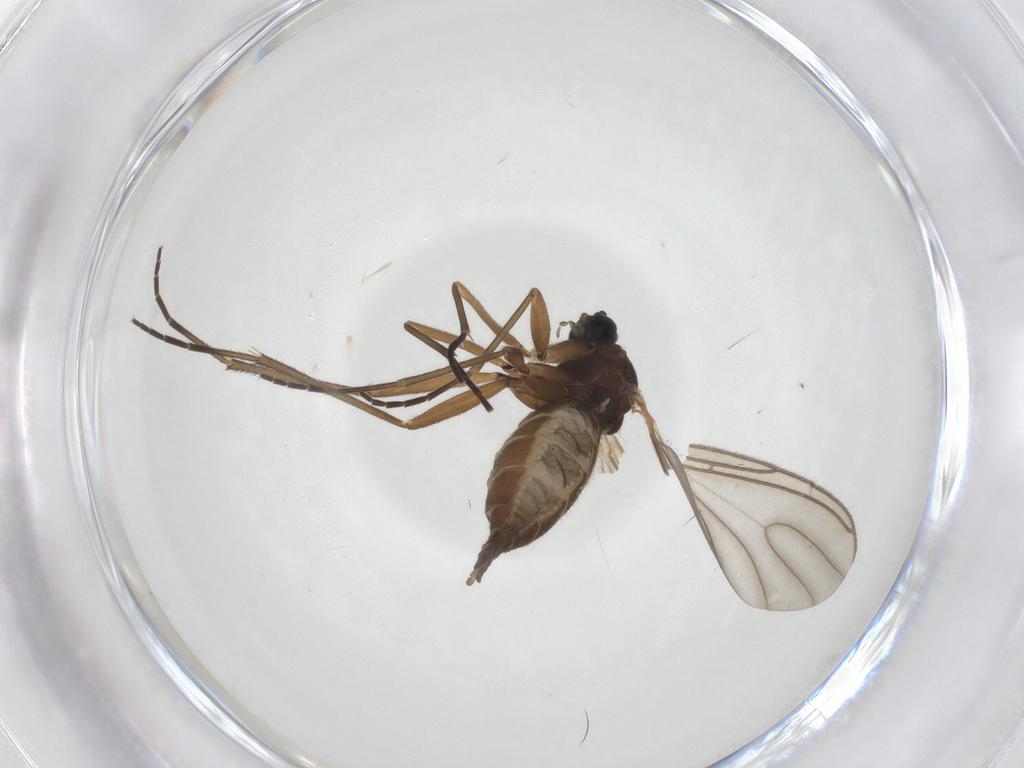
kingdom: Animalia
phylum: Arthropoda
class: Insecta
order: Diptera
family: Sciaridae
